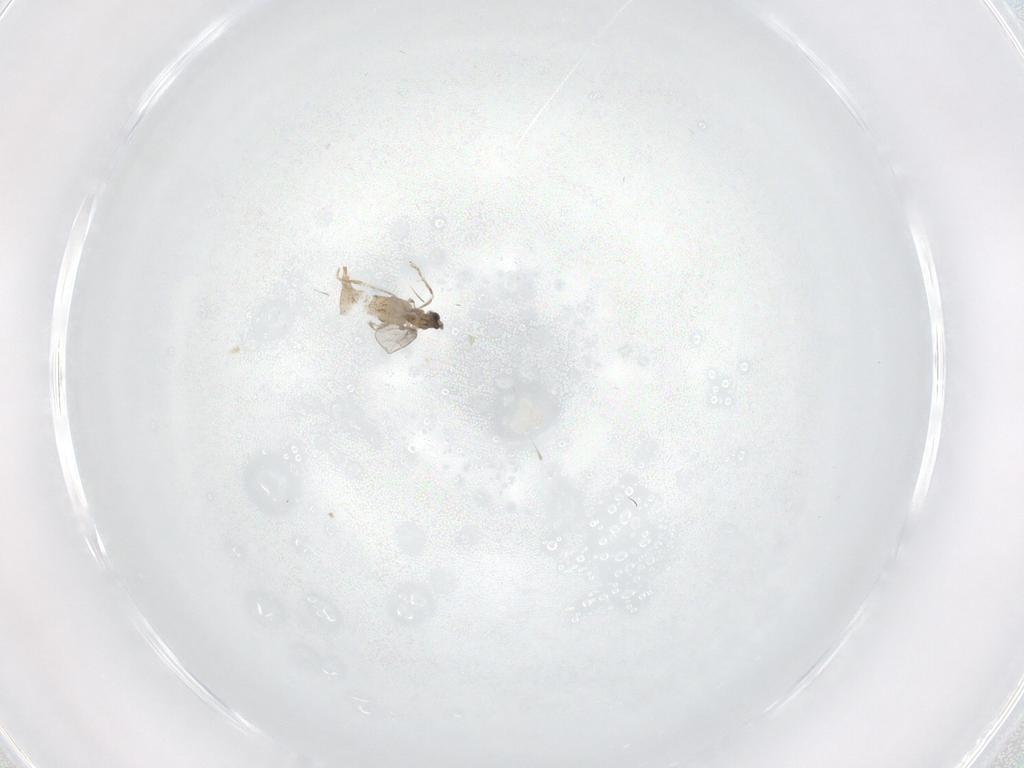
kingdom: Animalia
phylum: Arthropoda
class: Insecta
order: Diptera
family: Cecidomyiidae
